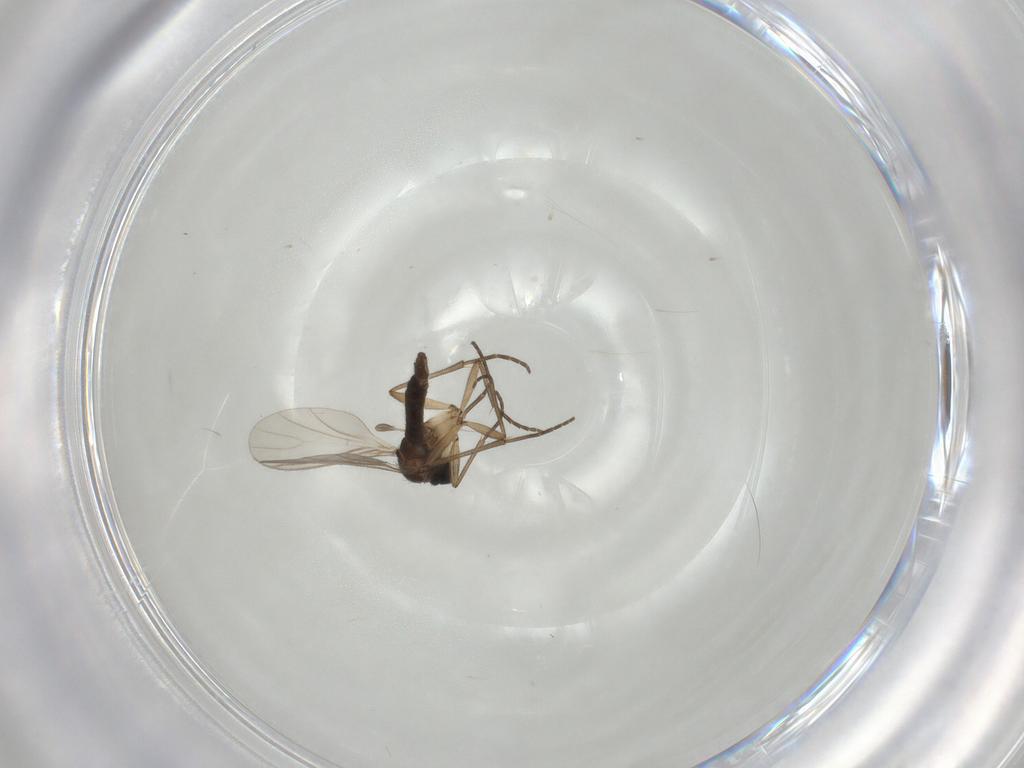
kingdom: Animalia
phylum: Arthropoda
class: Insecta
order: Diptera
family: Sciaridae
